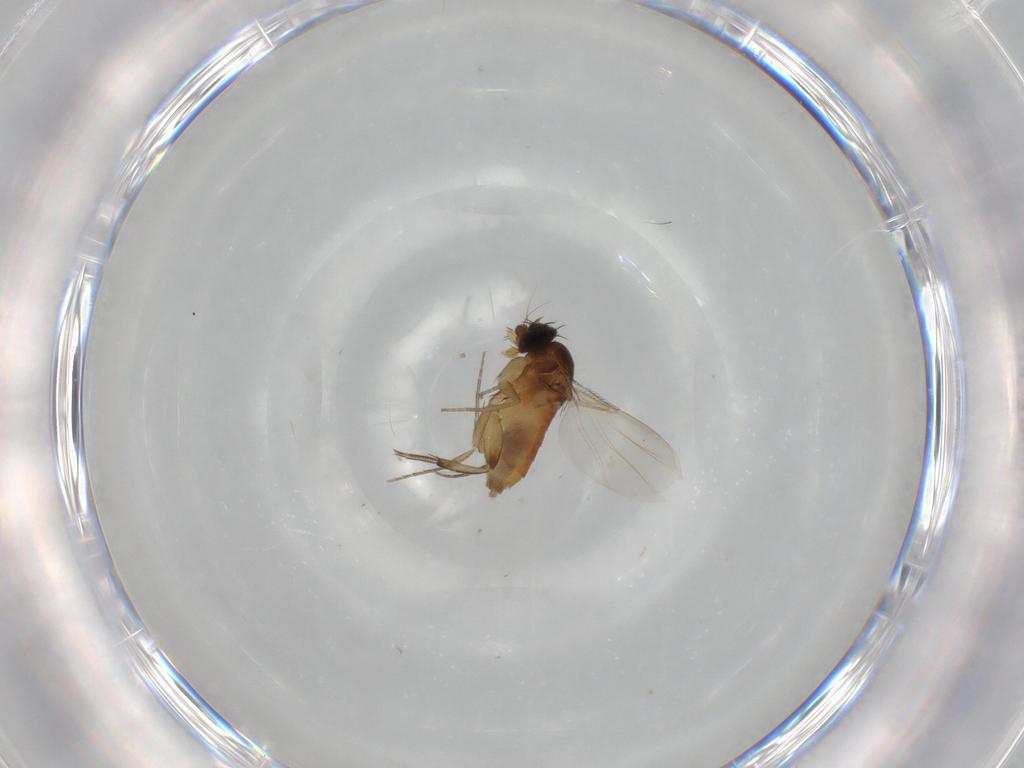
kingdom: Animalia
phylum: Arthropoda
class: Insecta
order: Diptera
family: Phoridae
